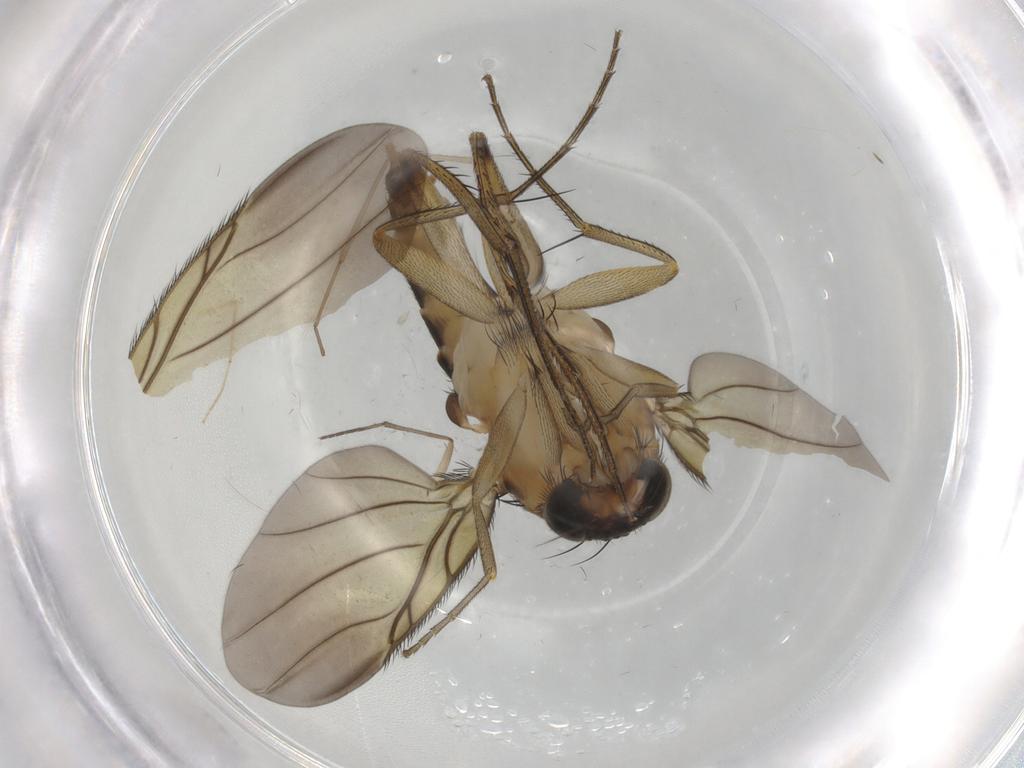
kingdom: Animalia
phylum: Arthropoda
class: Insecta
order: Diptera
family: Phoridae
